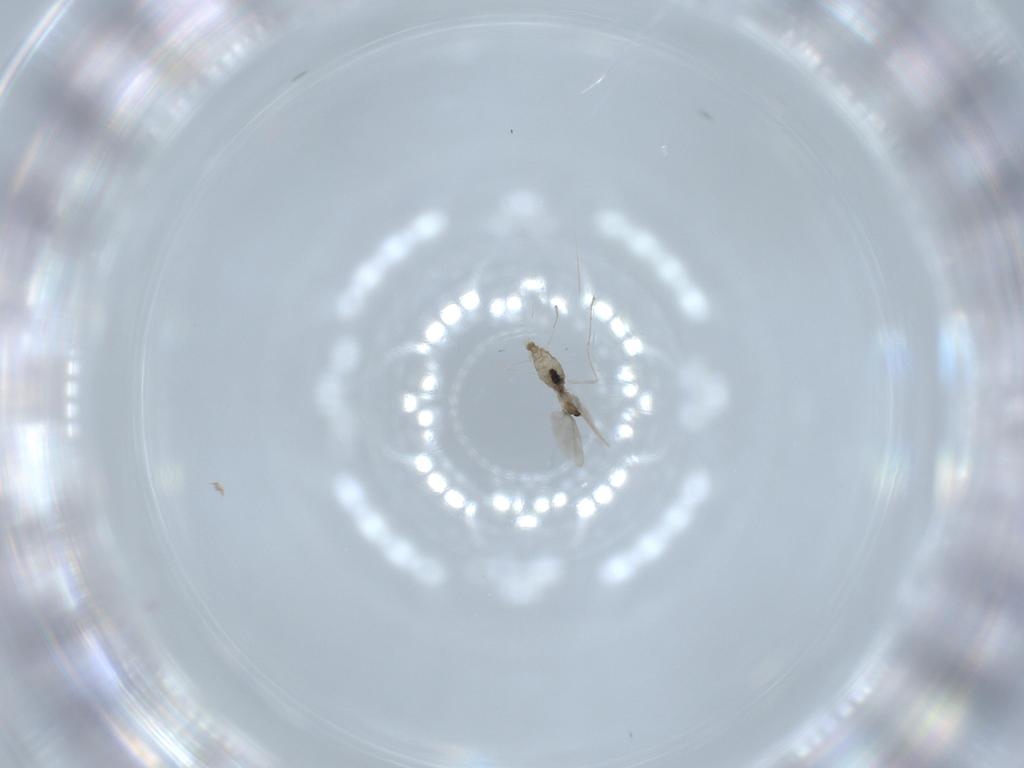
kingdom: Animalia
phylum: Arthropoda
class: Insecta
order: Diptera
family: Cecidomyiidae
